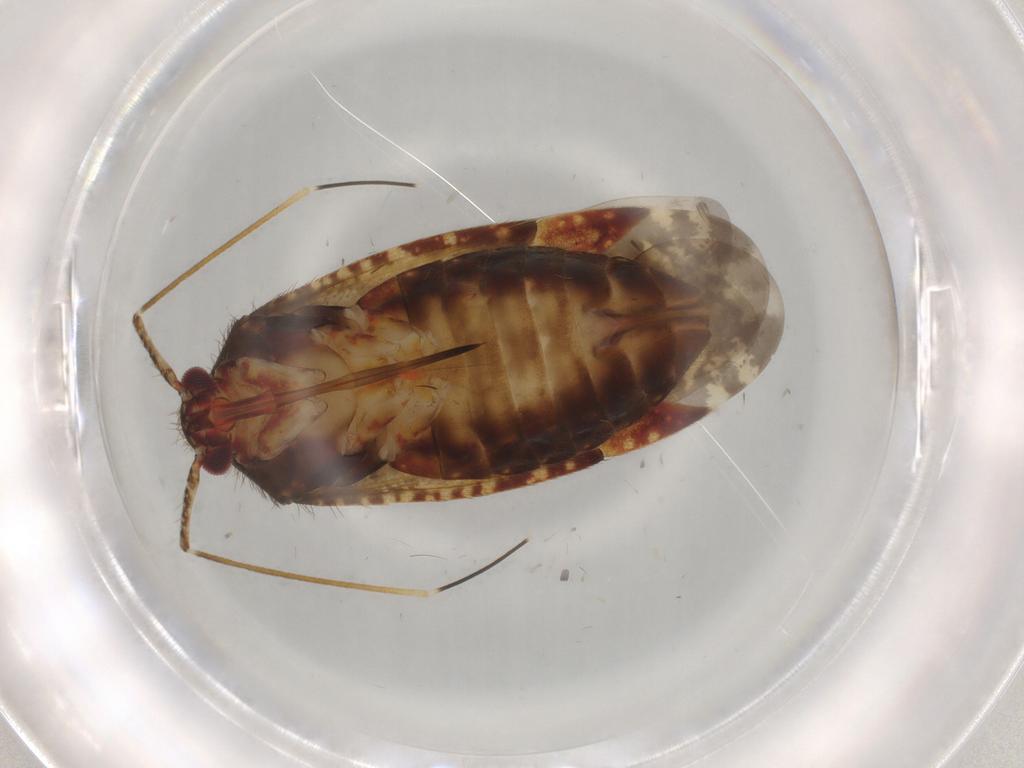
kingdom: Animalia
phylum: Arthropoda
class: Insecta
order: Hemiptera
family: Miridae
